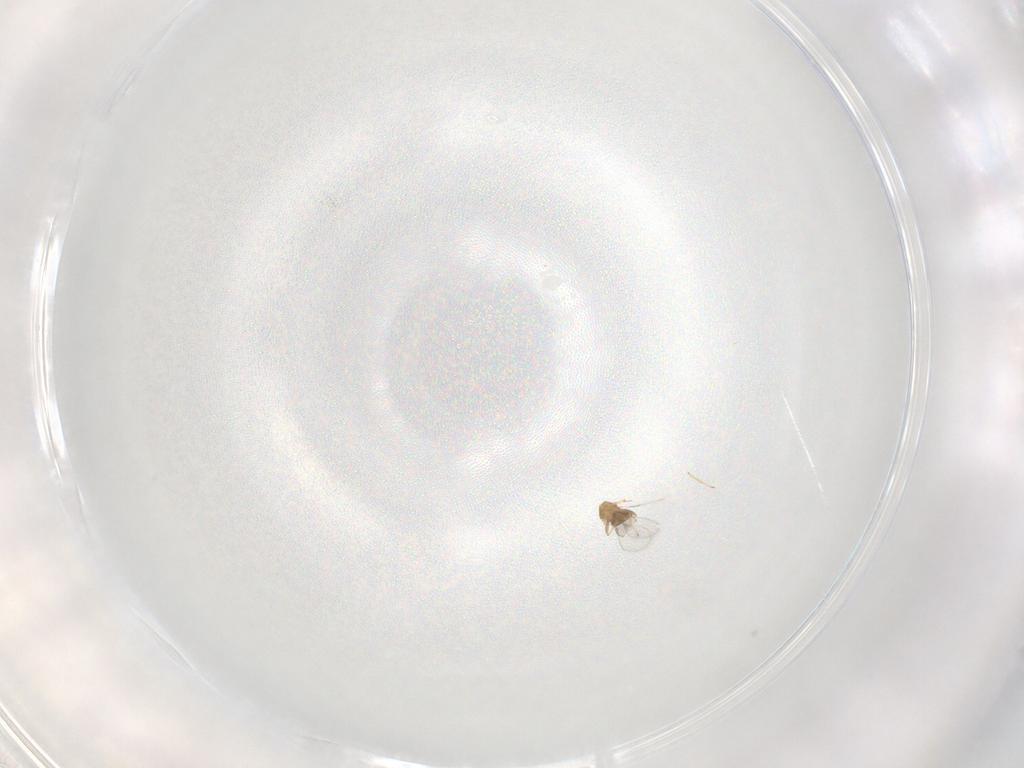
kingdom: Animalia
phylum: Arthropoda
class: Insecta
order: Hymenoptera
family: Trichogrammatidae
